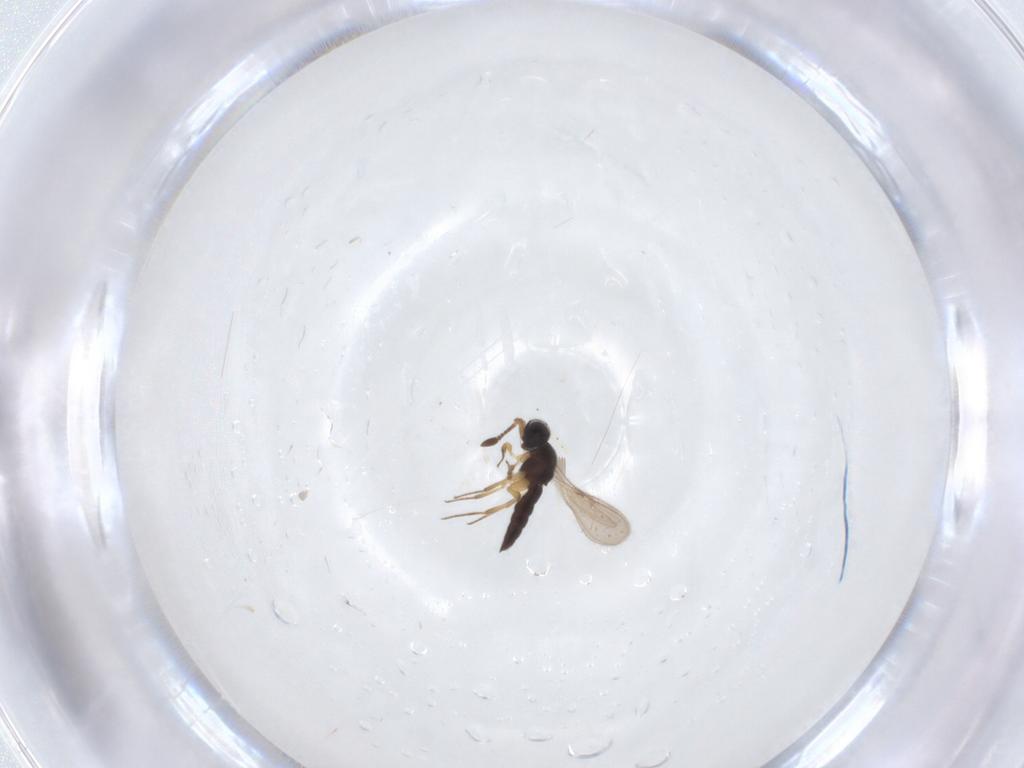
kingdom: Animalia
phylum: Arthropoda
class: Insecta
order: Hymenoptera
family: Scelionidae
